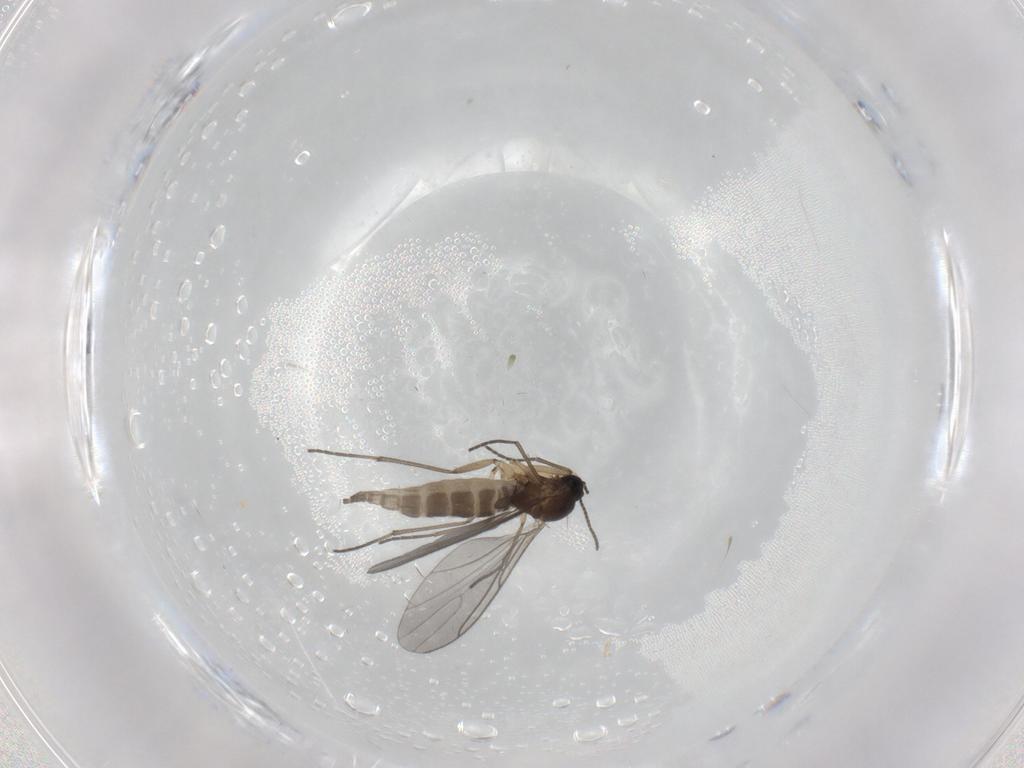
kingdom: Animalia
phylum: Arthropoda
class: Insecta
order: Diptera
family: Sciaridae
